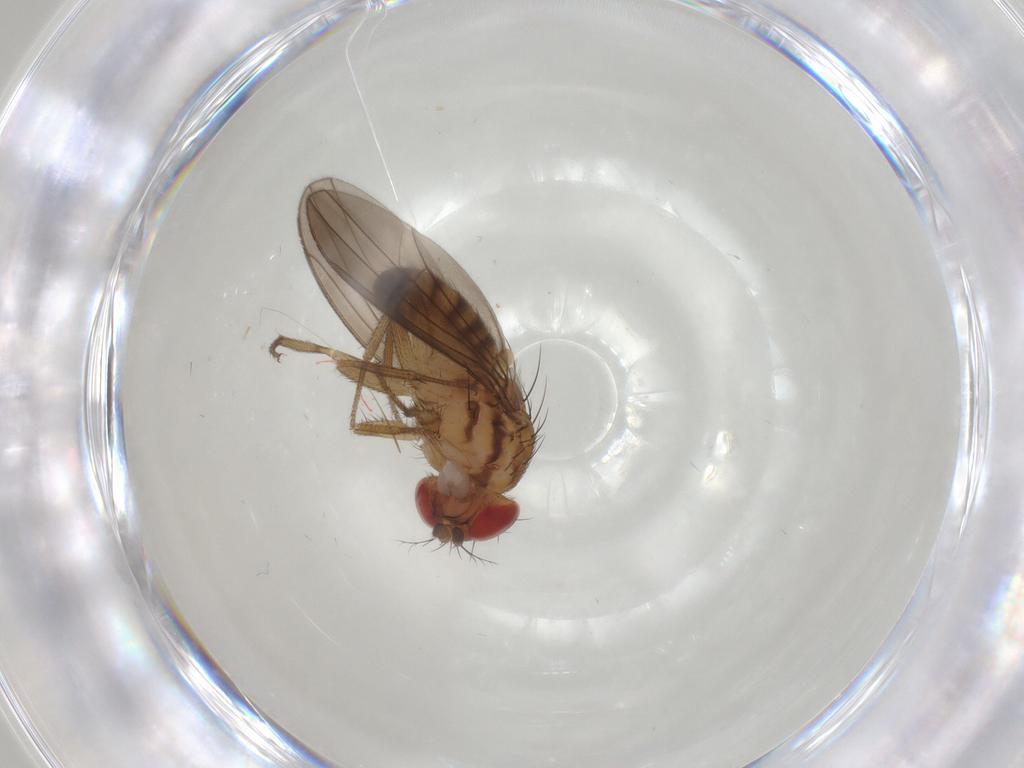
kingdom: Animalia
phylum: Arthropoda
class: Insecta
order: Diptera
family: Drosophilidae
